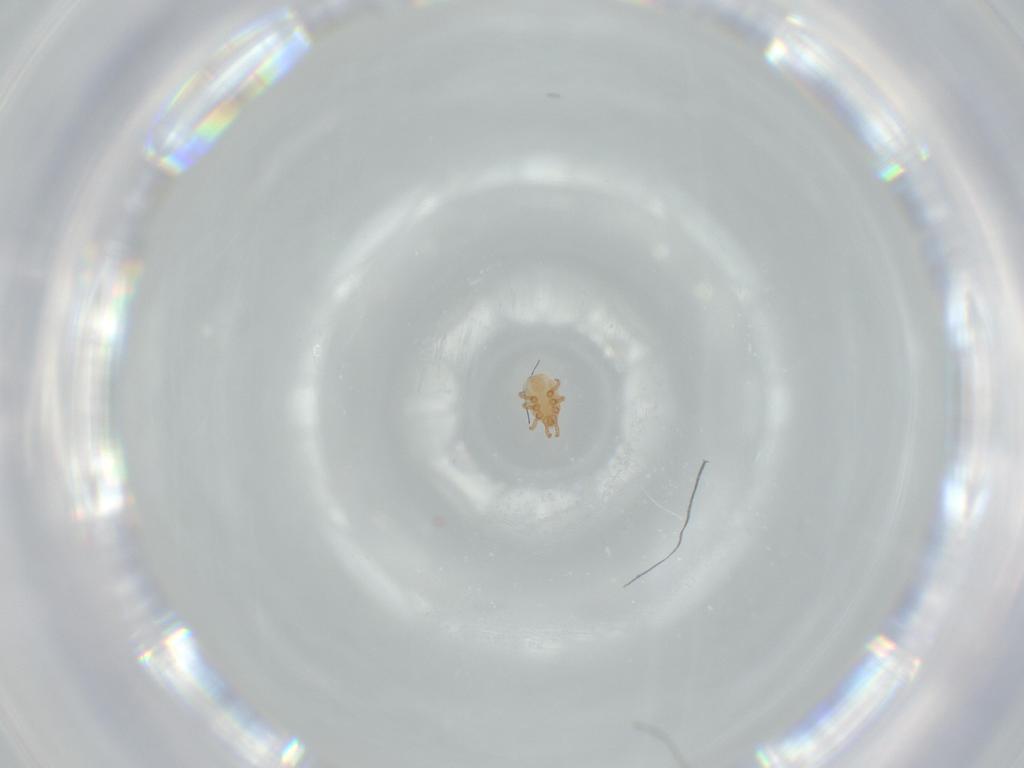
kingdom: Animalia
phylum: Arthropoda
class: Arachnida
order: Mesostigmata
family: Dinychidae
